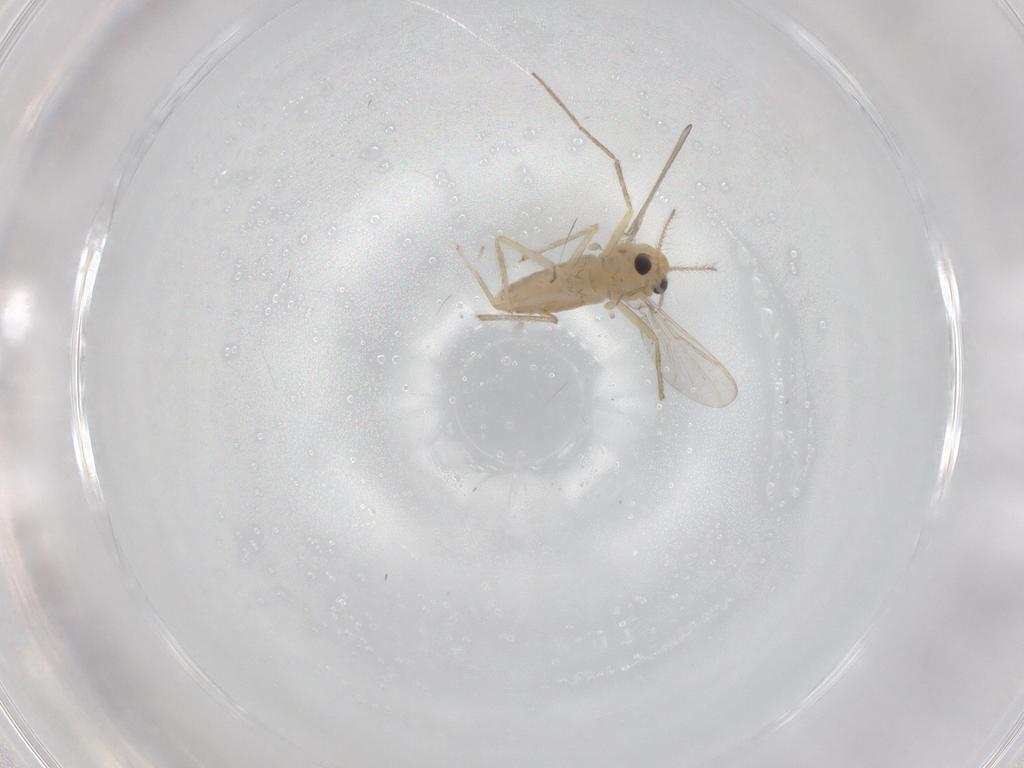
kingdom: Animalia
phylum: Arthropoda
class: Insecta
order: Diptera
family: Chironomidae
